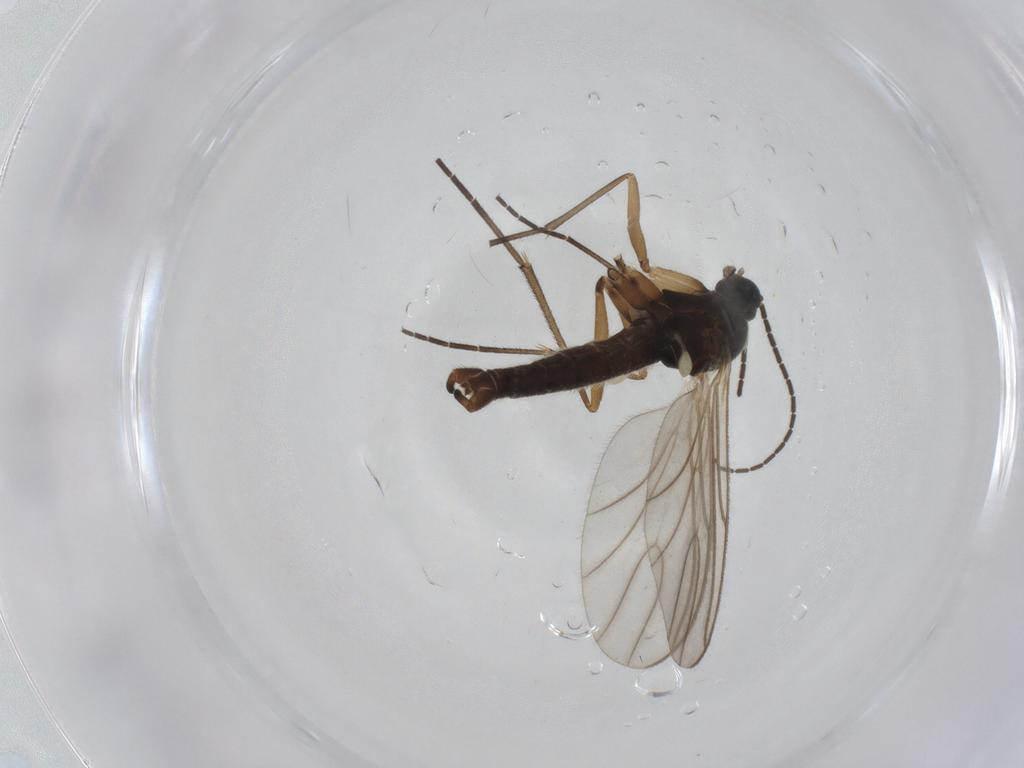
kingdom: Animalia
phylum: Arthropoda
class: Insecta
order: Diptera
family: Sciaridae
